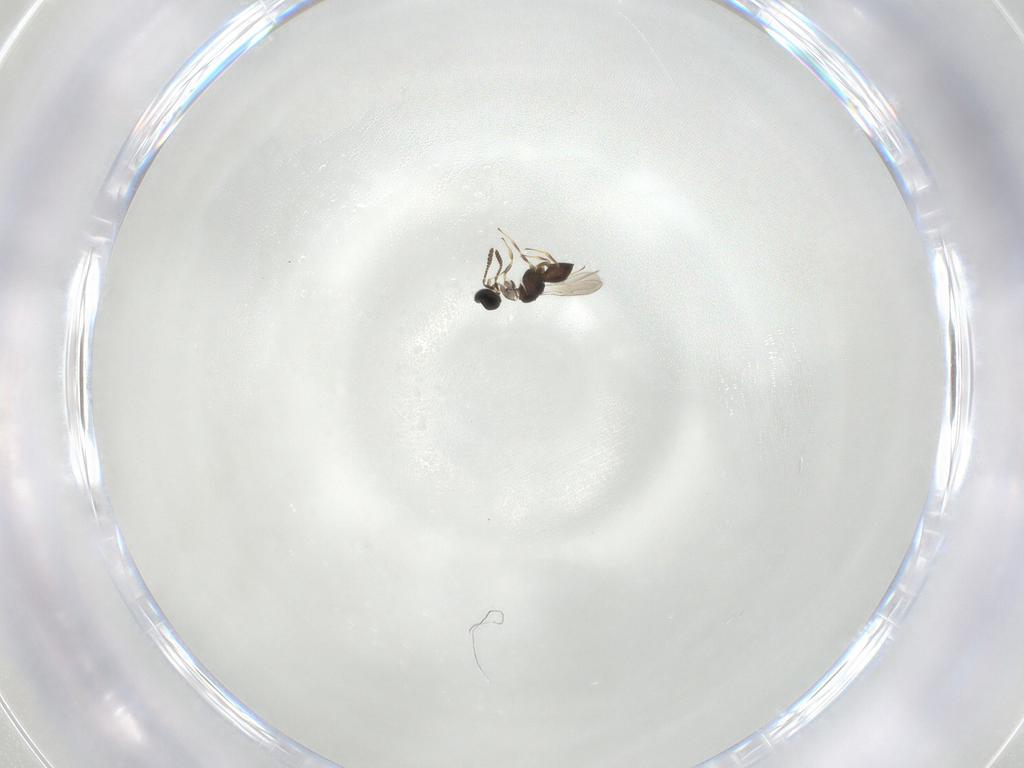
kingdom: Animalia
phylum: Arthropoda
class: Insecta
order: Hymenoptera
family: Scelionidae
